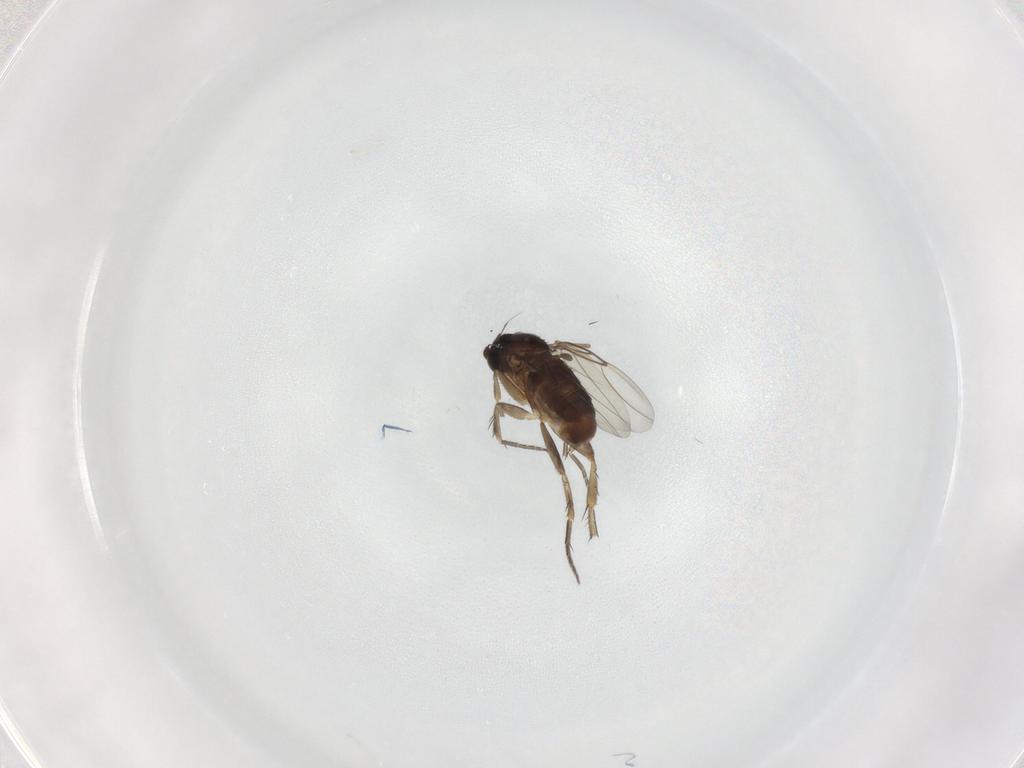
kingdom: Animalia
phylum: Arthropoda
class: Insecta
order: Diptera
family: Phoridae
